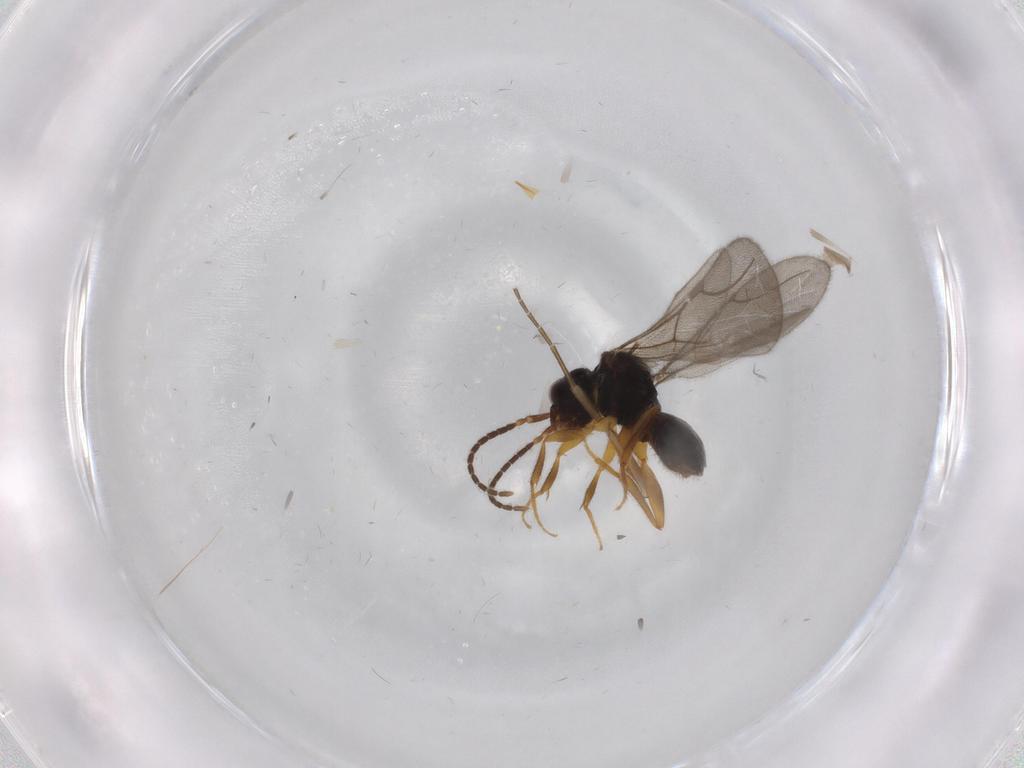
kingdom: Animalia
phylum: Arthropoda
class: Insecta
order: Hymenoptera
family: Bethylidae
